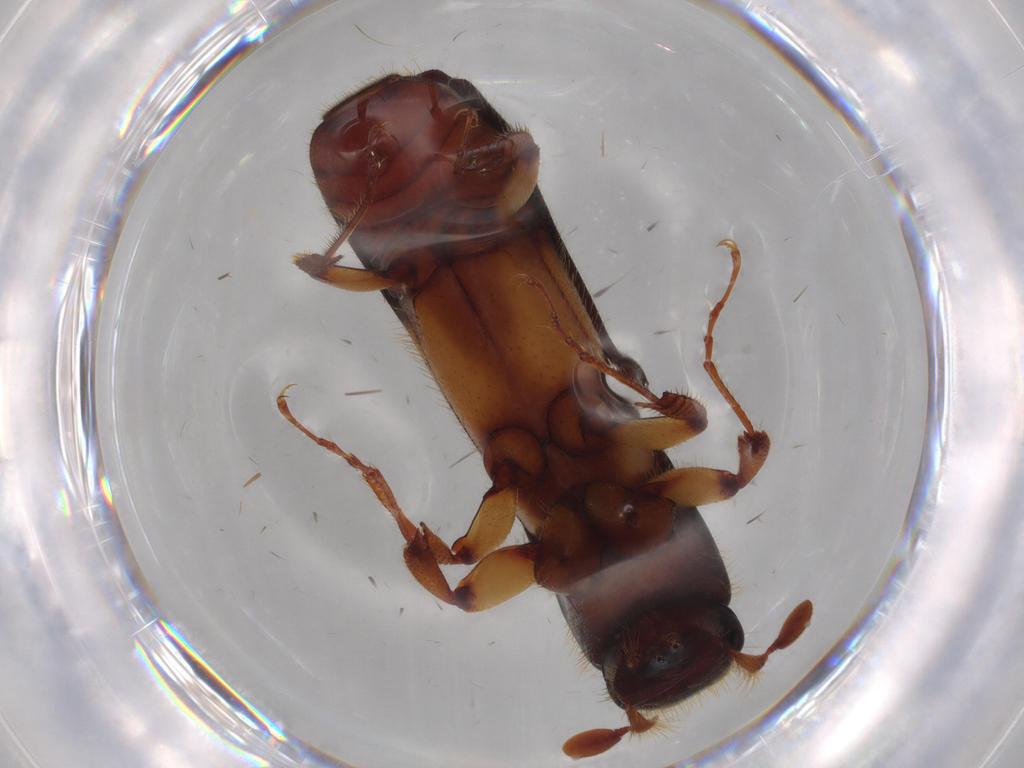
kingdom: Animalia
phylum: Arthropoda
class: Insecta
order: Coleoptera
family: Curculionidae
